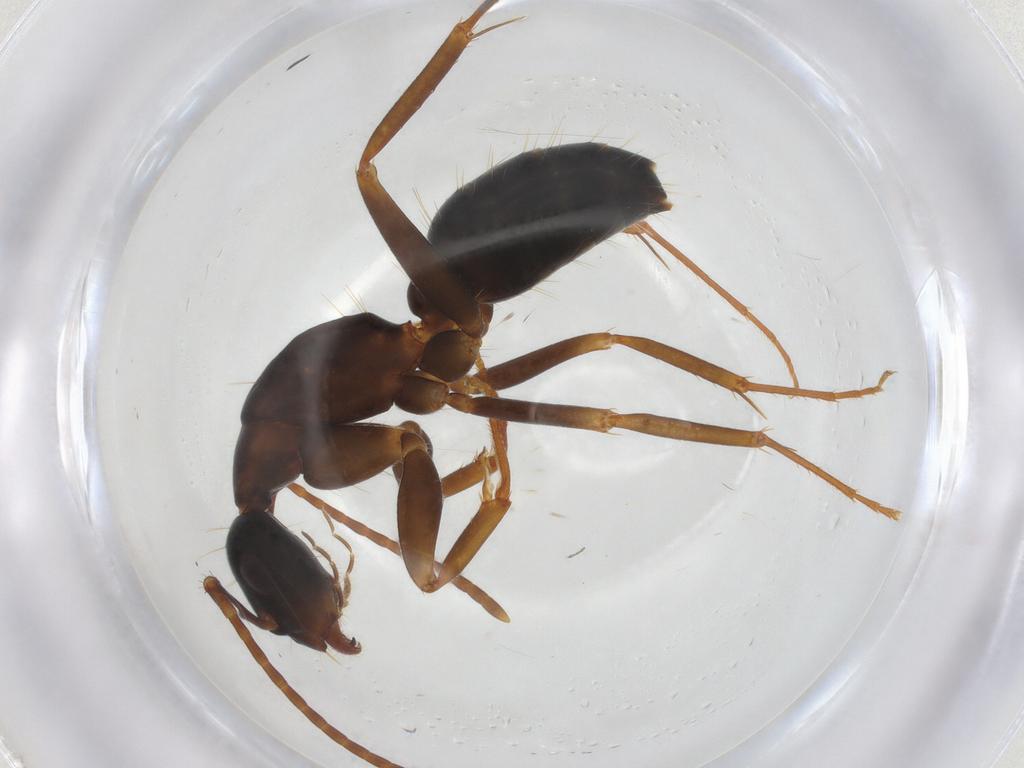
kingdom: Animalia
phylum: Arthropoda
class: Insecta
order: Hymenoptera
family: Formicidae
